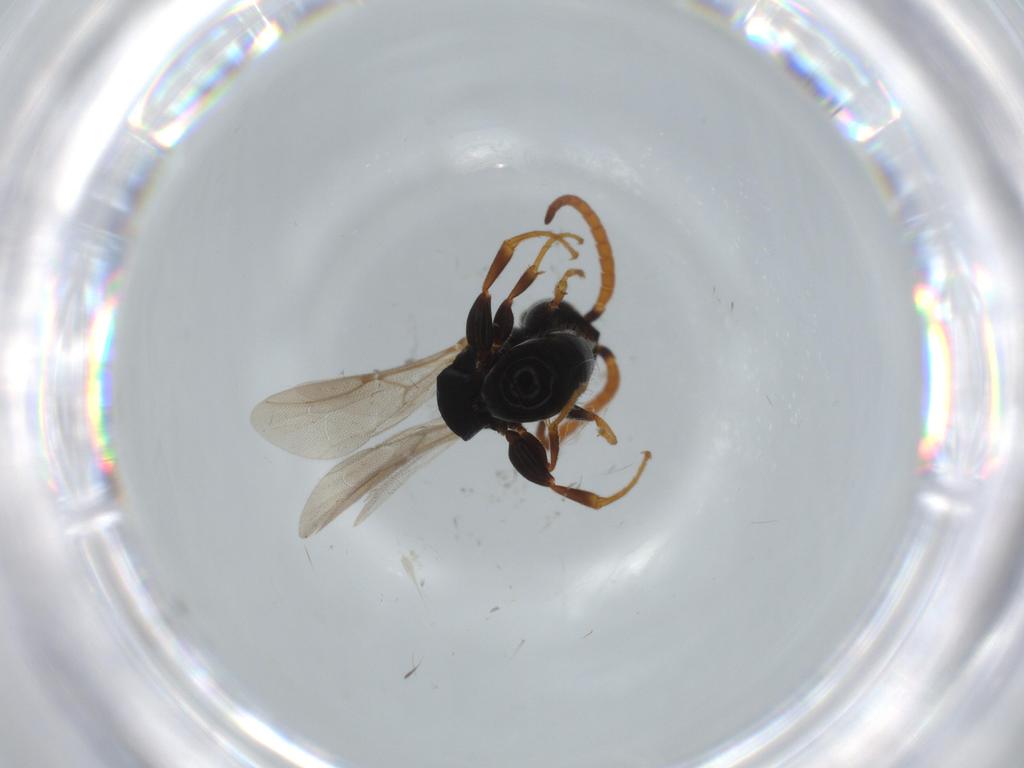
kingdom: Animalia
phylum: Arthropoda
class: Insecta
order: Hymenoptera
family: Bethylidae
